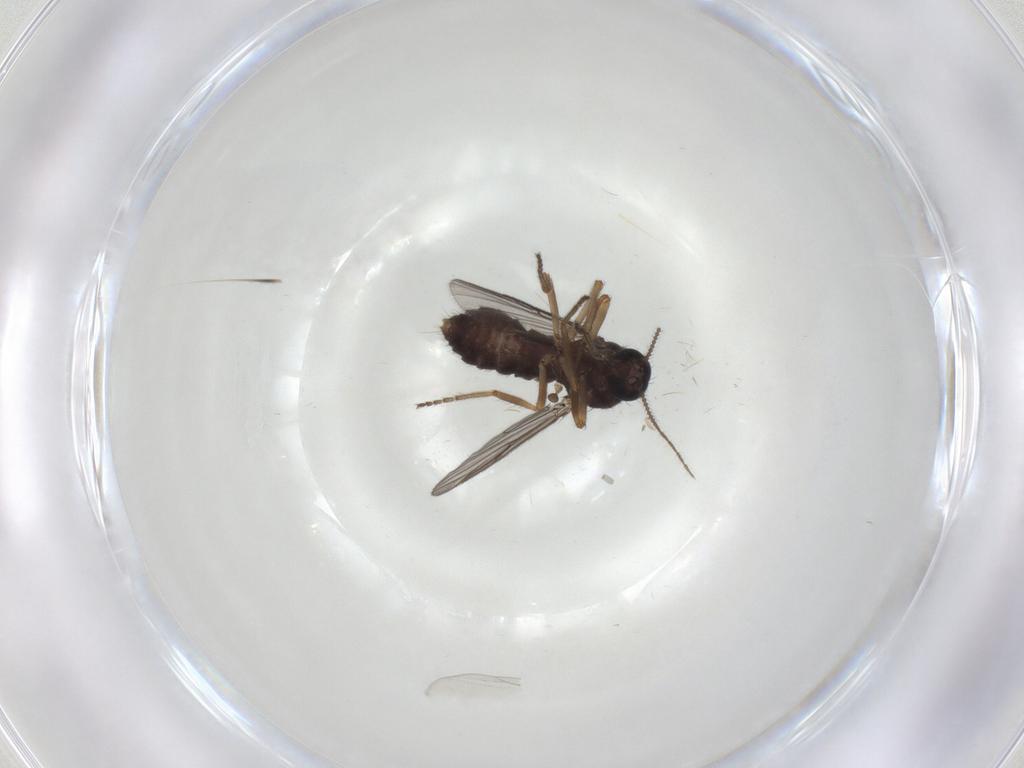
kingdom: Animalia
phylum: Arthropoda
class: Insecta
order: Diptera
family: Ceratopogonidae
